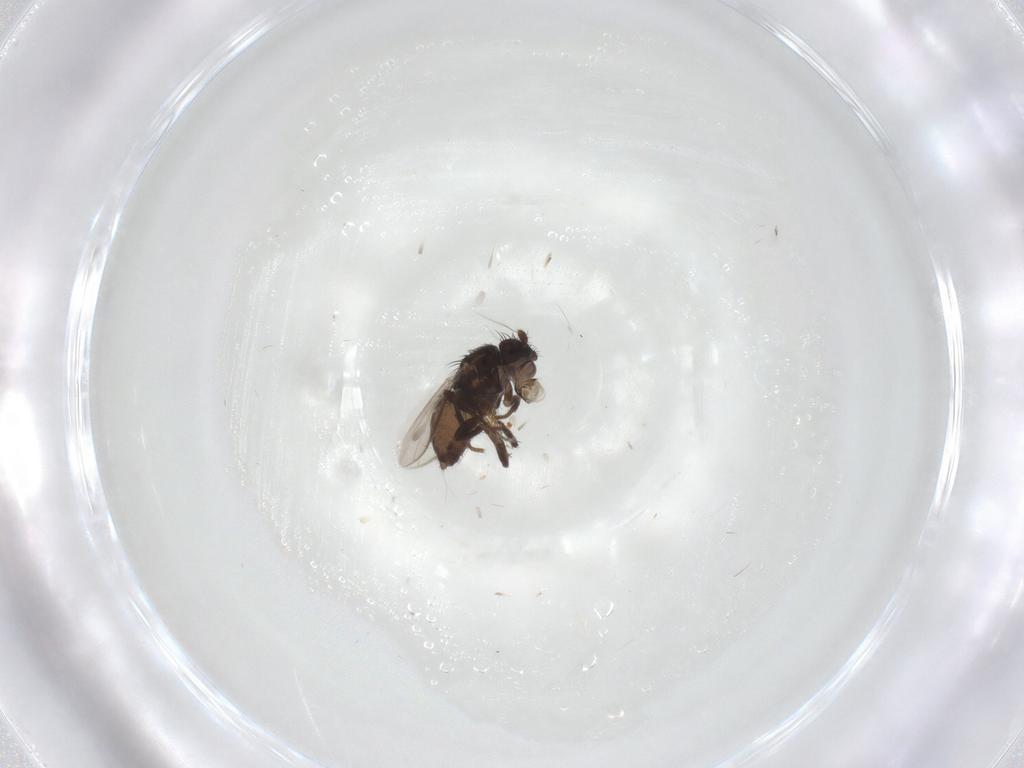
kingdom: Animalia
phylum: Arthropoda
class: Insecta
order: Diptera
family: Sphaeroceridae
